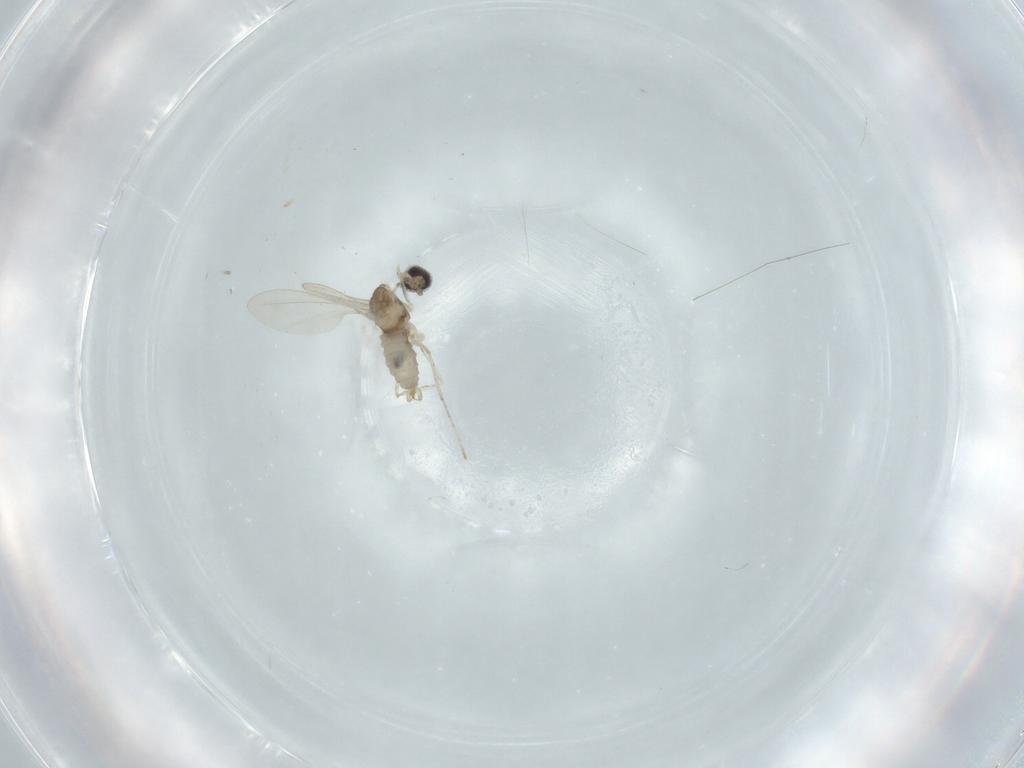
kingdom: Animalia
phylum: Arthropoda
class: Insecta
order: Diptera
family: Cecidomyiidae
